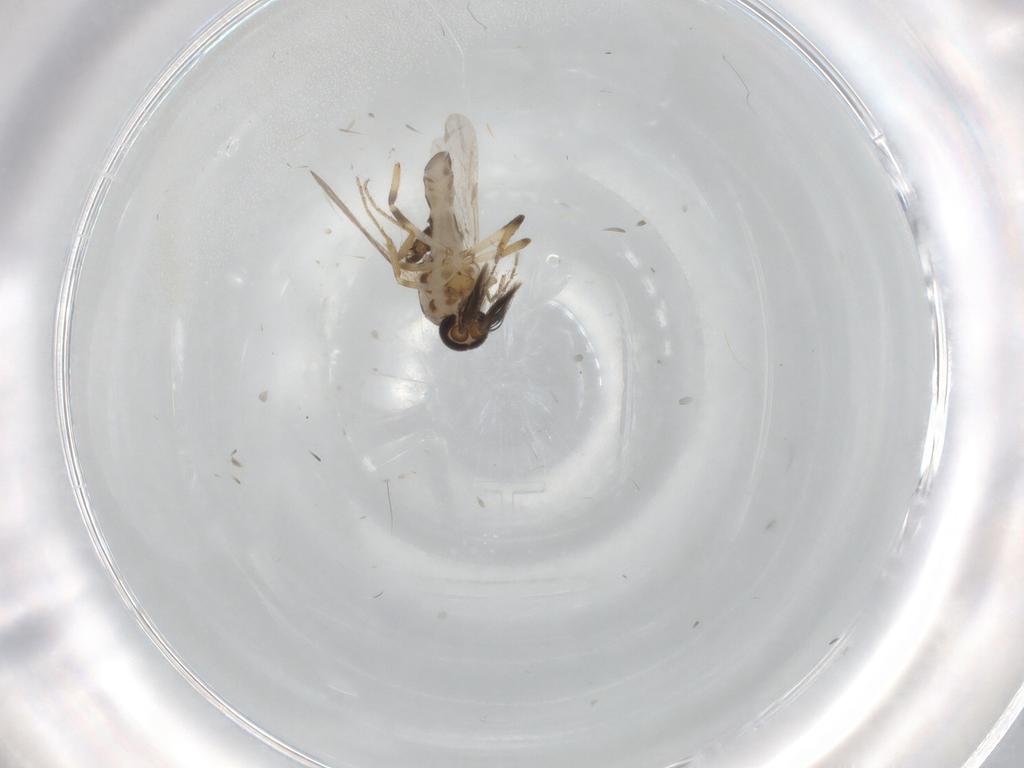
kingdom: Animalia
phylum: Arthropoda
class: Insecta
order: Diptera
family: Ceratopogonidae
